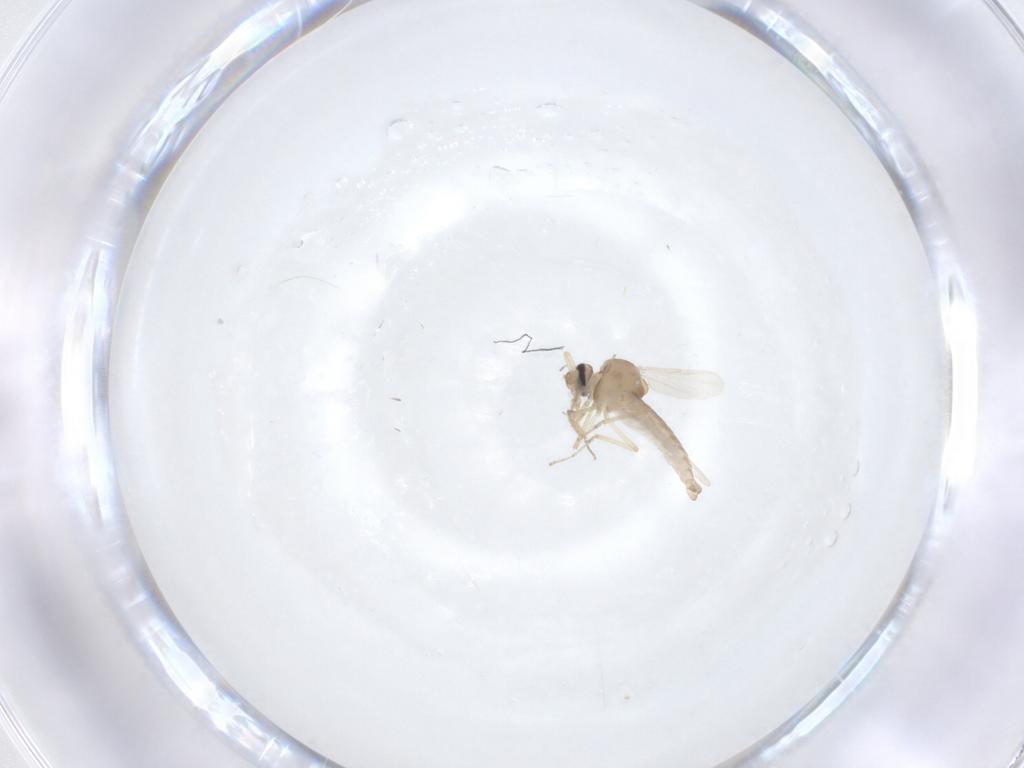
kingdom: Animalia
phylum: Arthropoda
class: Insecta
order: Diptera
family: Ceratopogonidae
